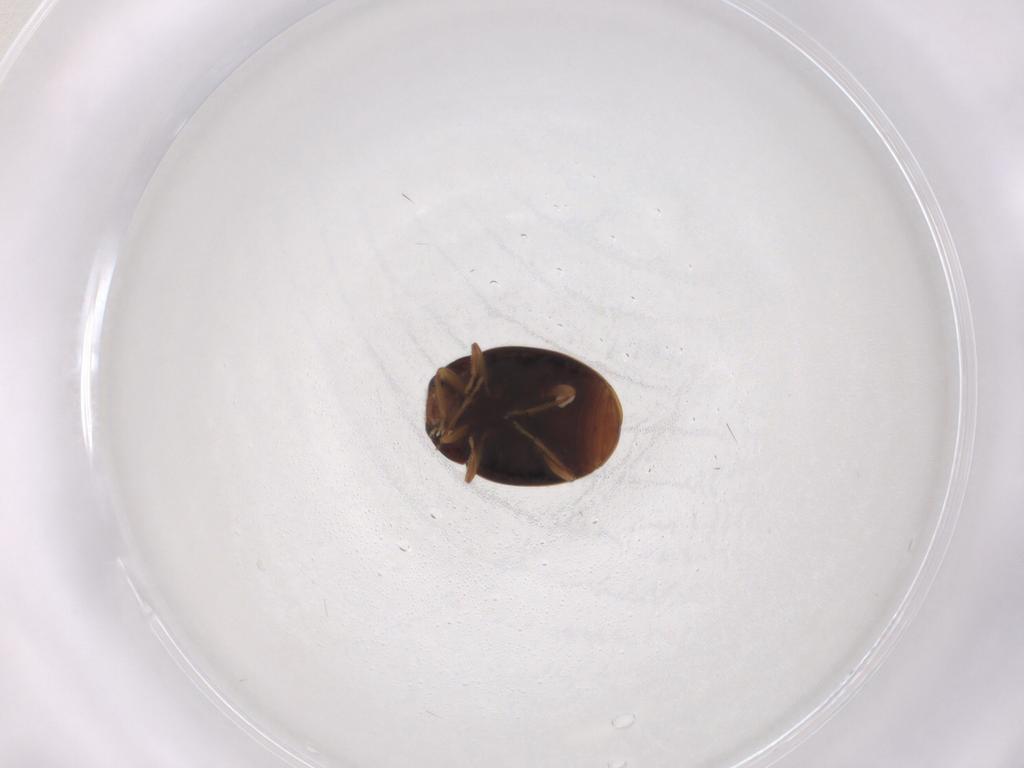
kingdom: Animalia
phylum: Arthropoda
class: Insecta
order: Coleoptera
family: Coccinellidae
